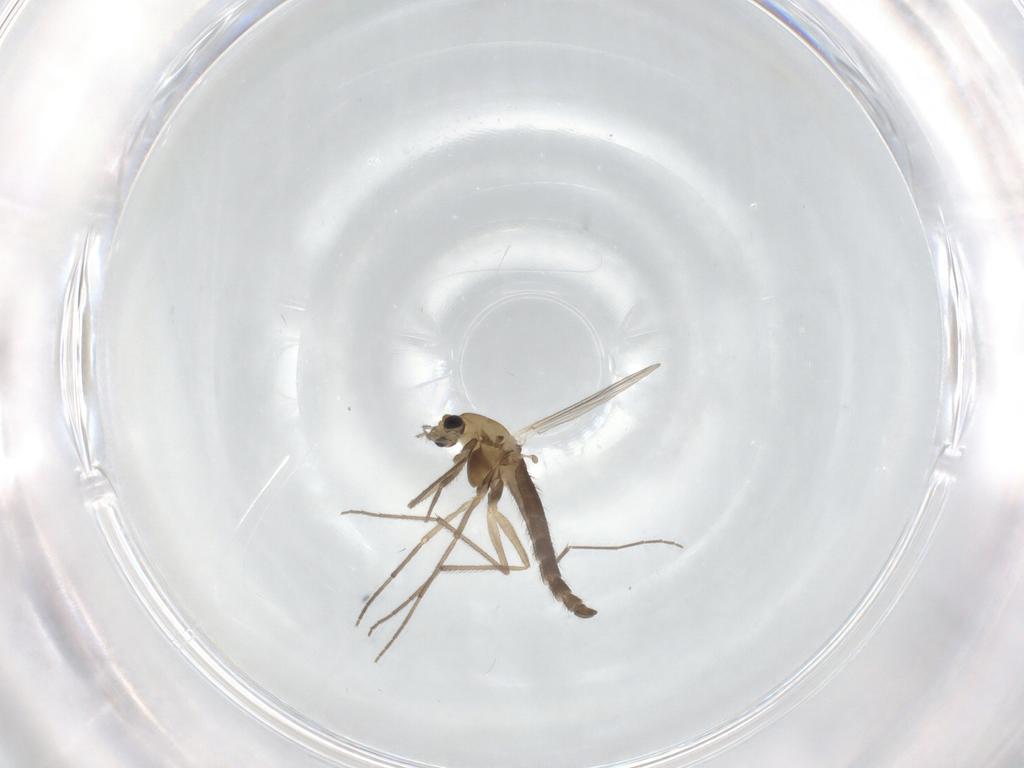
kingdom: Animalia
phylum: Arthropoda
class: Insecta
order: Diptera
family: Chironomidae
